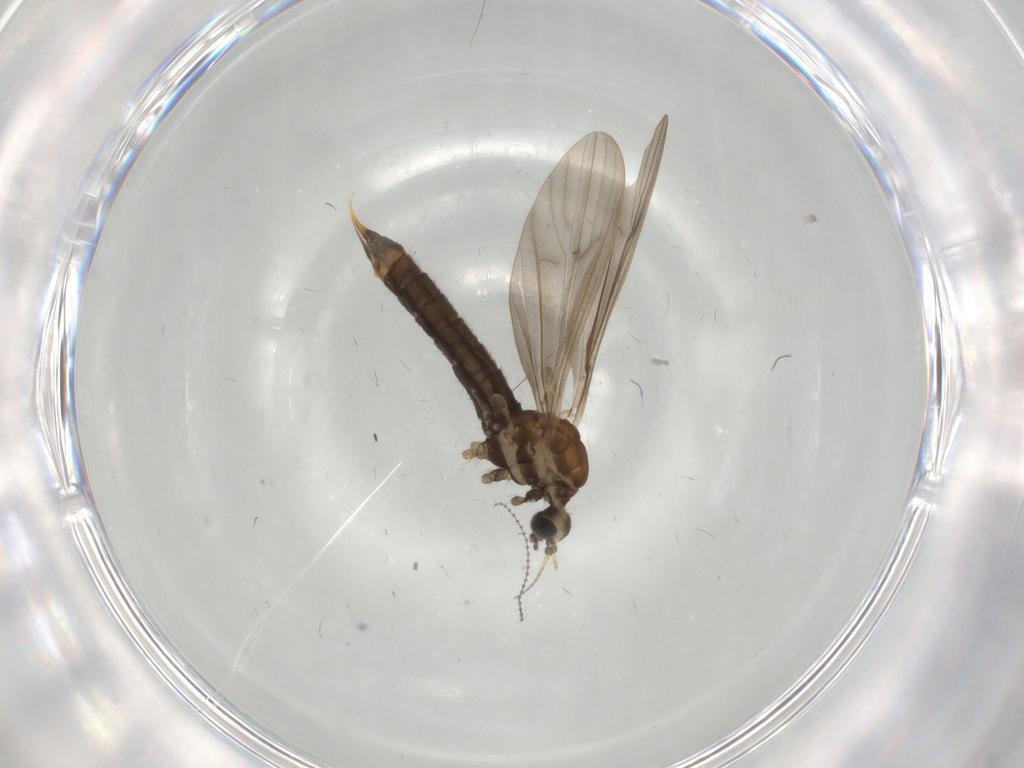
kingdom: Animalia
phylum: Arthropoda
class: Insecta
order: Diptera
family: Limoniidae
